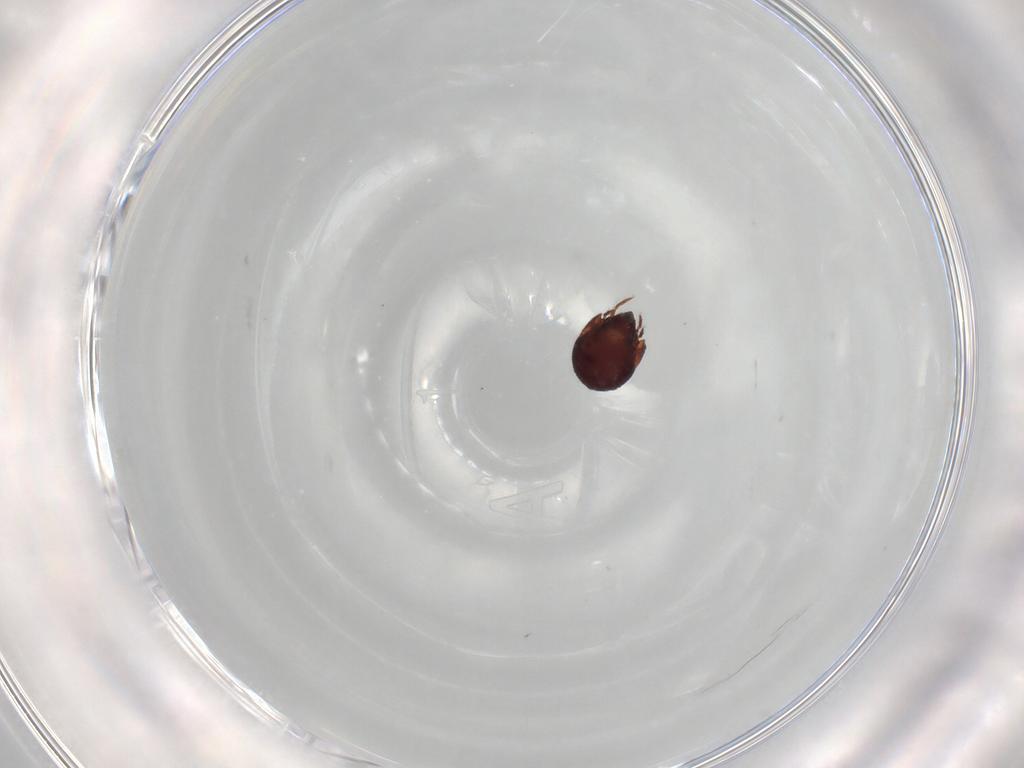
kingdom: Animalia
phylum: Arthropoda
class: Arachnida
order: Sarcoptiformes
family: Humerobatidae
